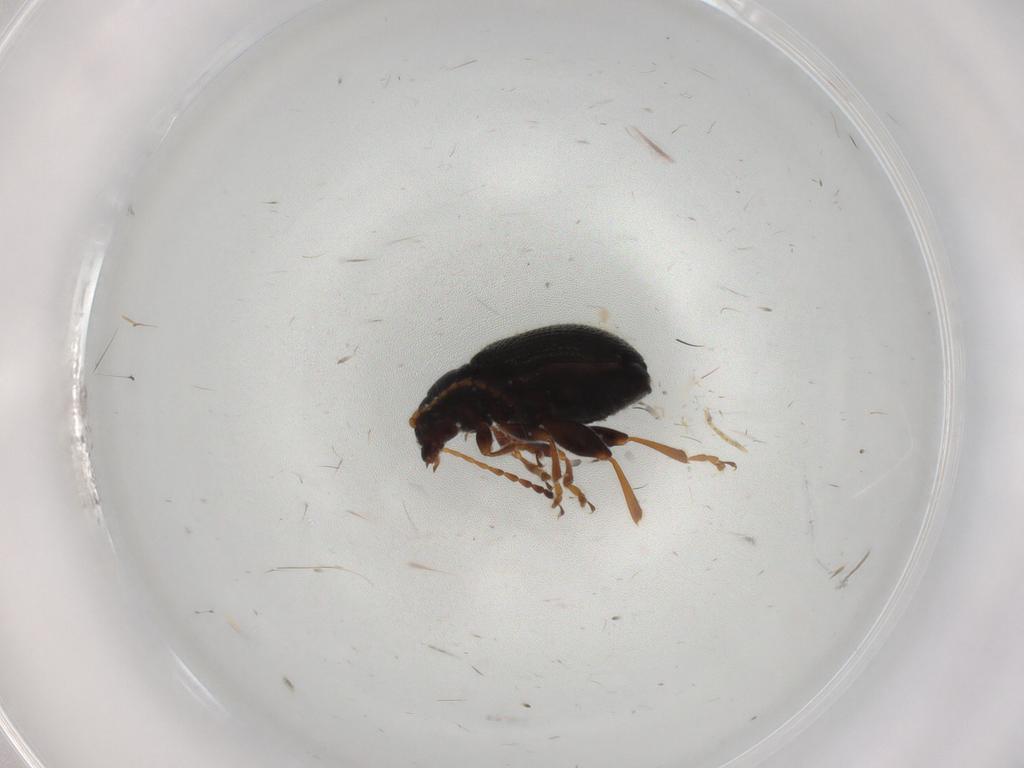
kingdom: Animalia
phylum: Arthropoda
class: Insecta
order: Coleoptera
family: Chrysomelidae
